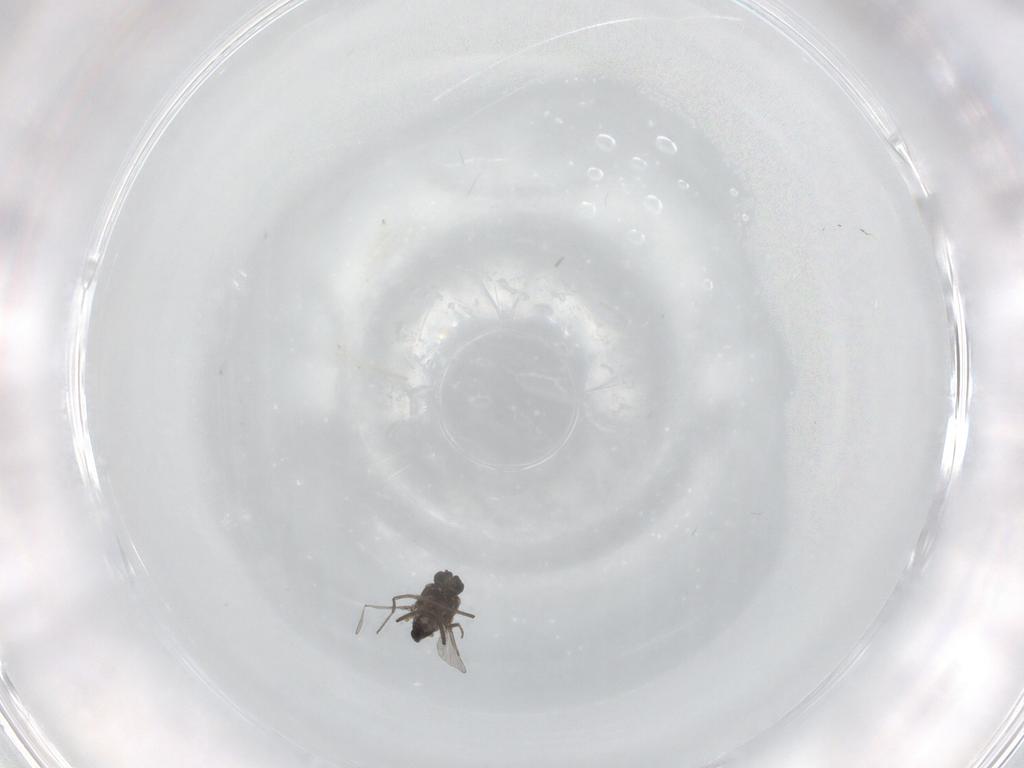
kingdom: Animalia
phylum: Arthropoda
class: Insecta
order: Diptera
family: Ceratopogonidae
